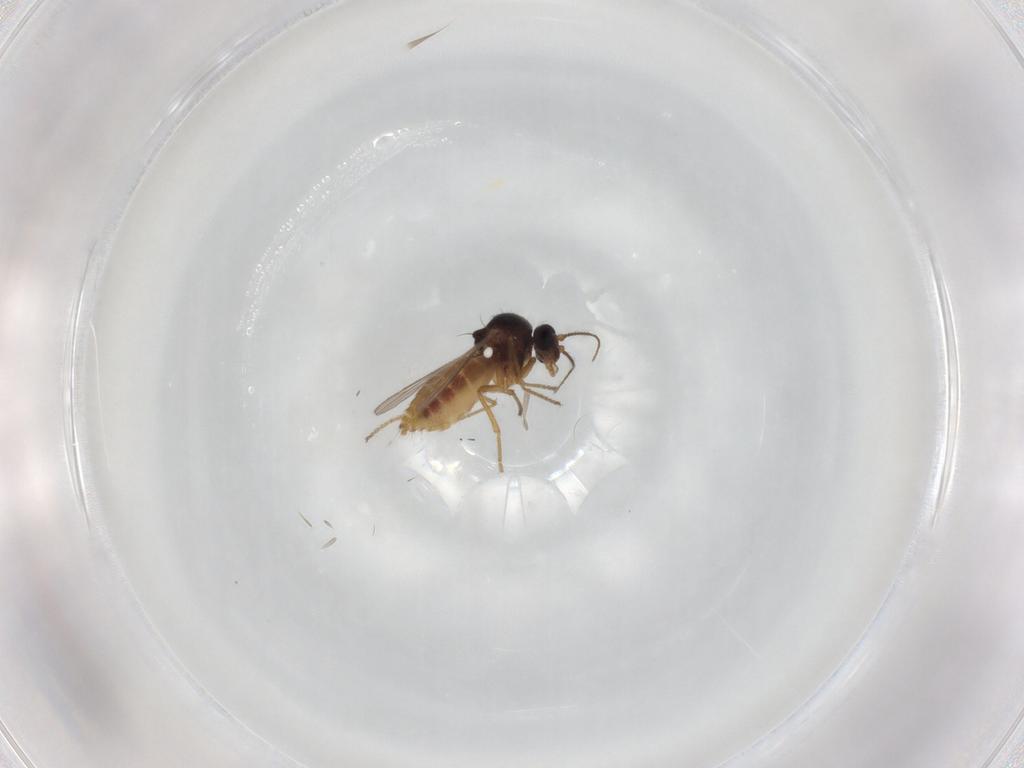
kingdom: Animalia
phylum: Arthropoda
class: Insecta
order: Diptera
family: Ceratopogonidae
